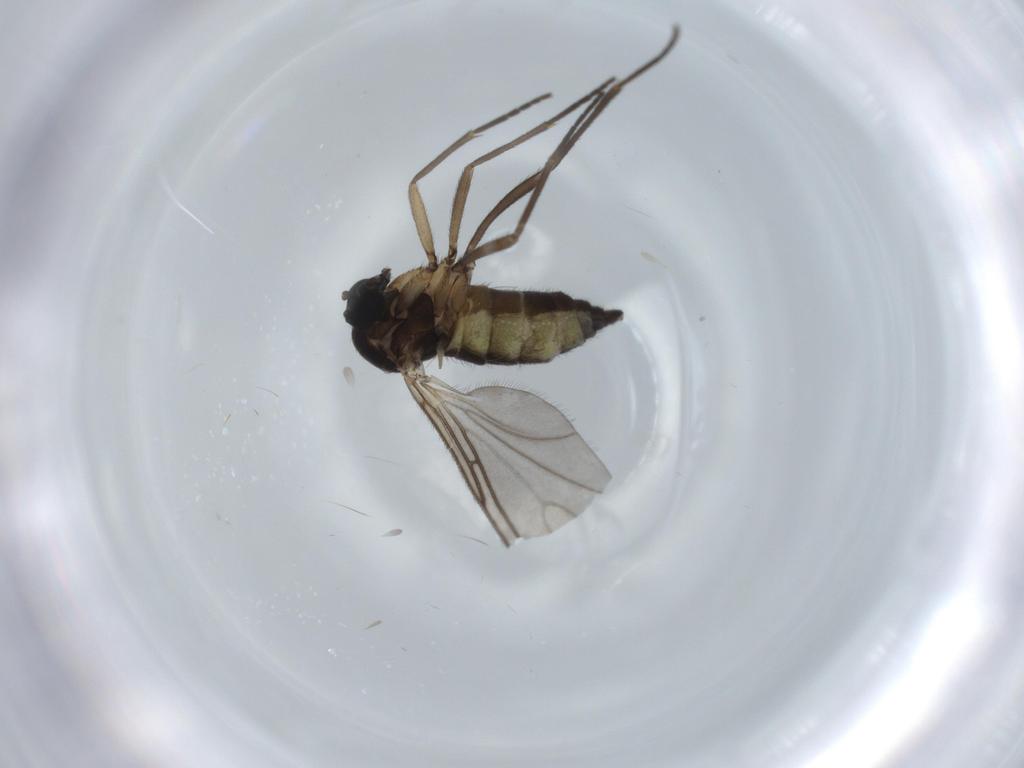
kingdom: Animalia
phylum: Arthropoda
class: Insecta
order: Diptera
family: Sciaridae
